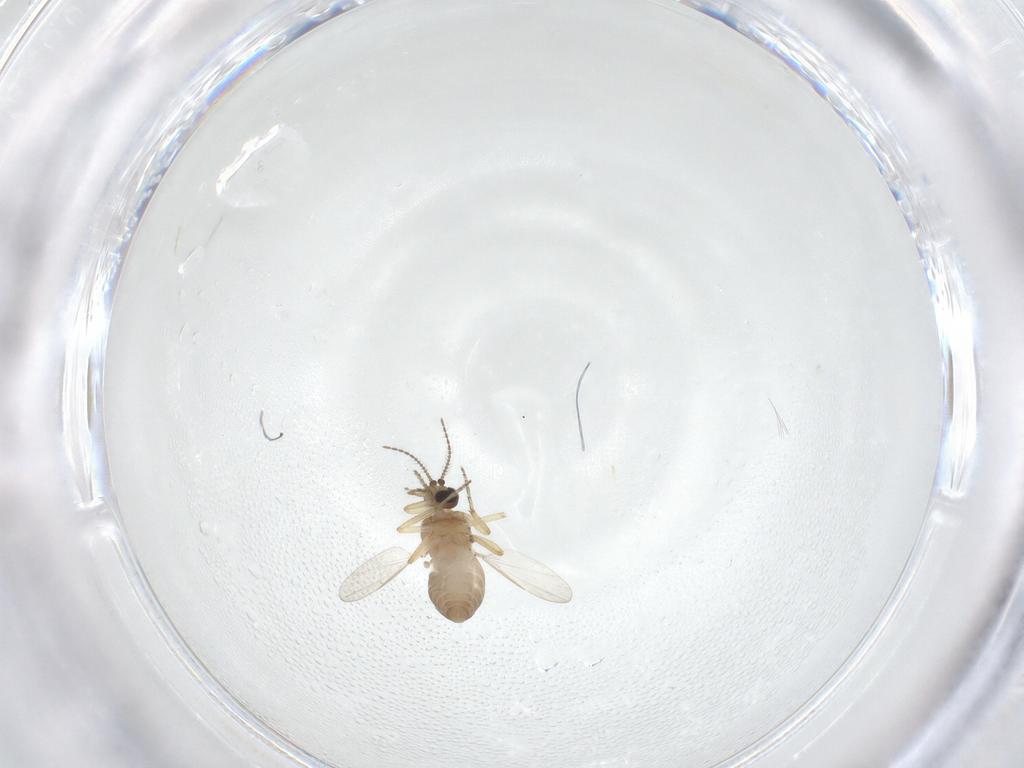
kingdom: Animalia
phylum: Arthropoda
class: Insecta
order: Diptera
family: Ceratopogonidae
